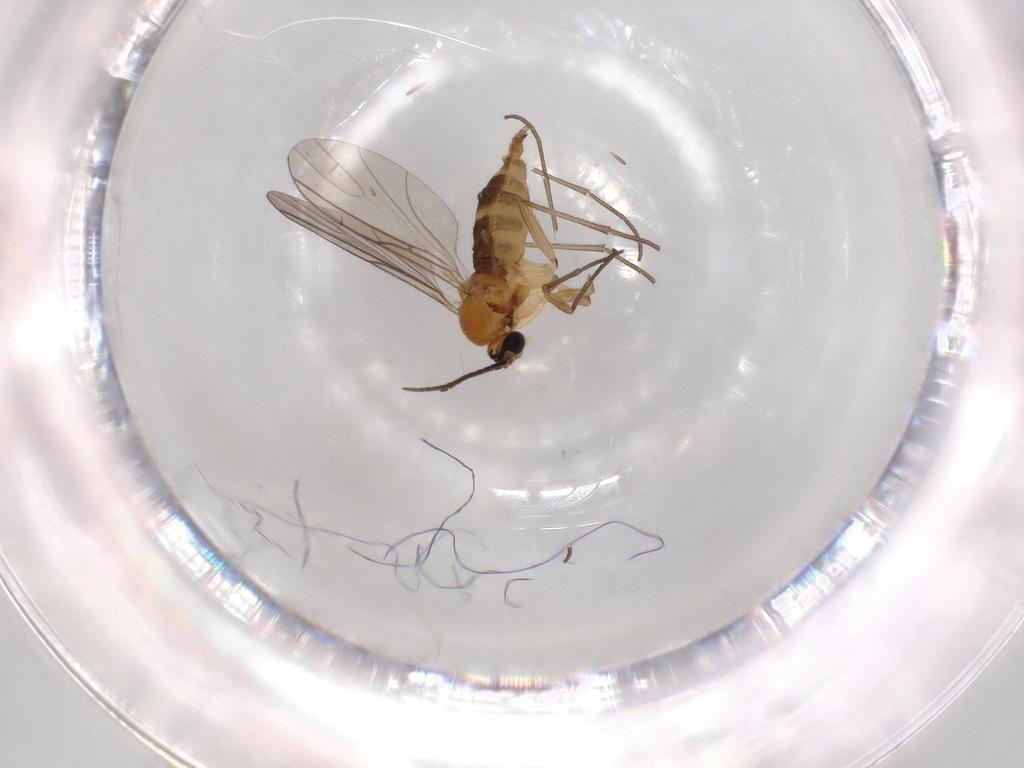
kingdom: Animalia
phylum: Arthropoda
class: Insecta
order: Diptera
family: Sciaridae
